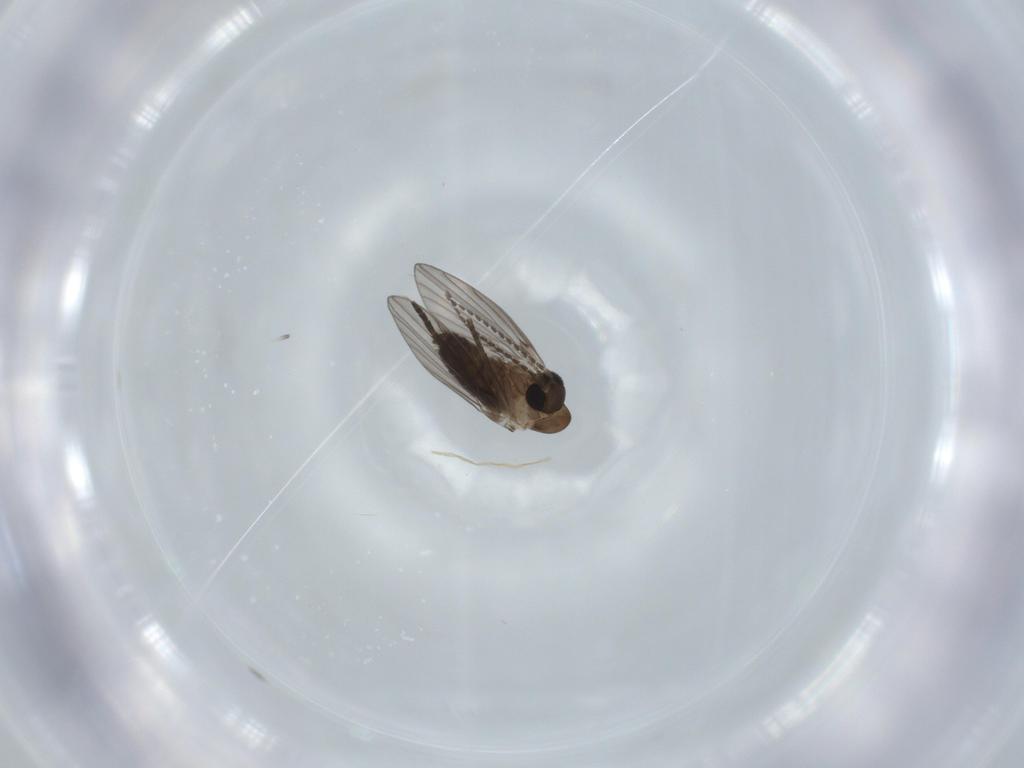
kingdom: Animalia
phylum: Arthropoda
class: Insecta
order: Diptera
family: Psychodidae
